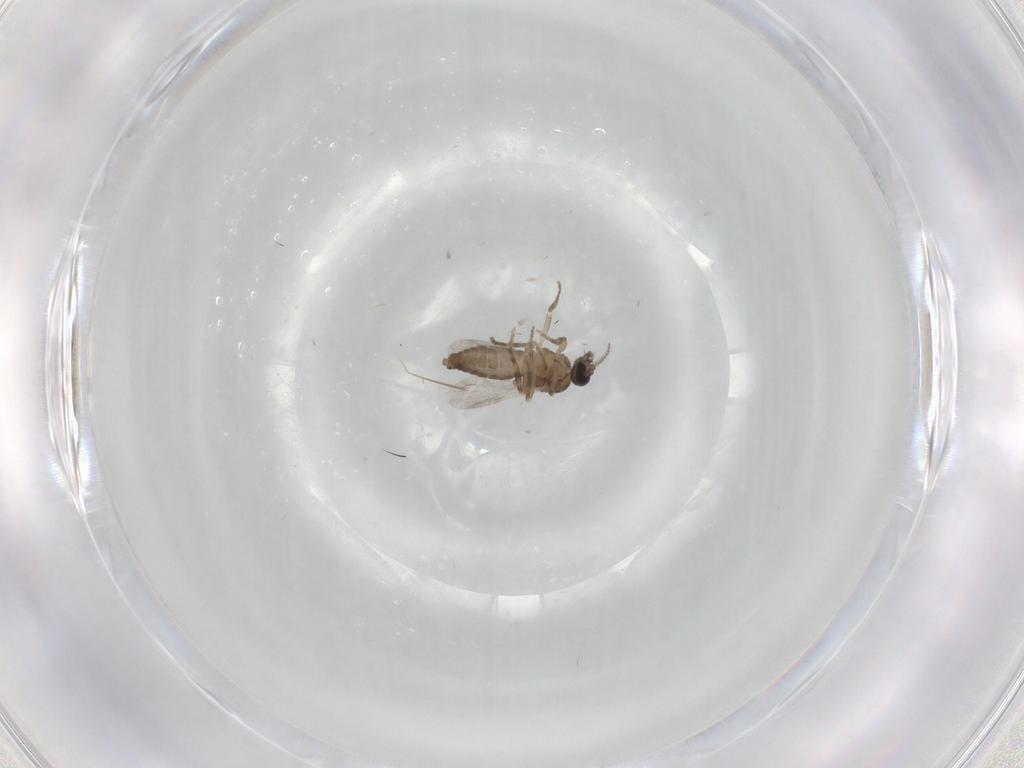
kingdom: Animalia
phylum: Arthropoda
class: Insecta
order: Diptera
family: Ceratopogonidae
